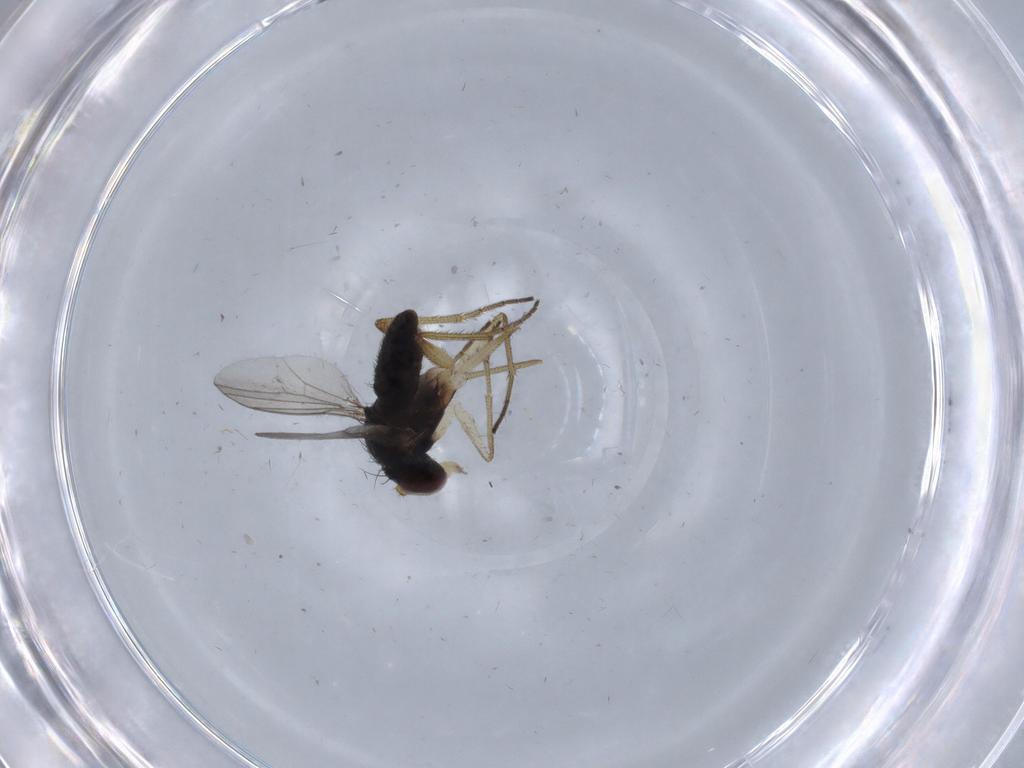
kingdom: Animalia
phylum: Arthropoda
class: Insecta
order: Diptera
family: Dolichopodidae
